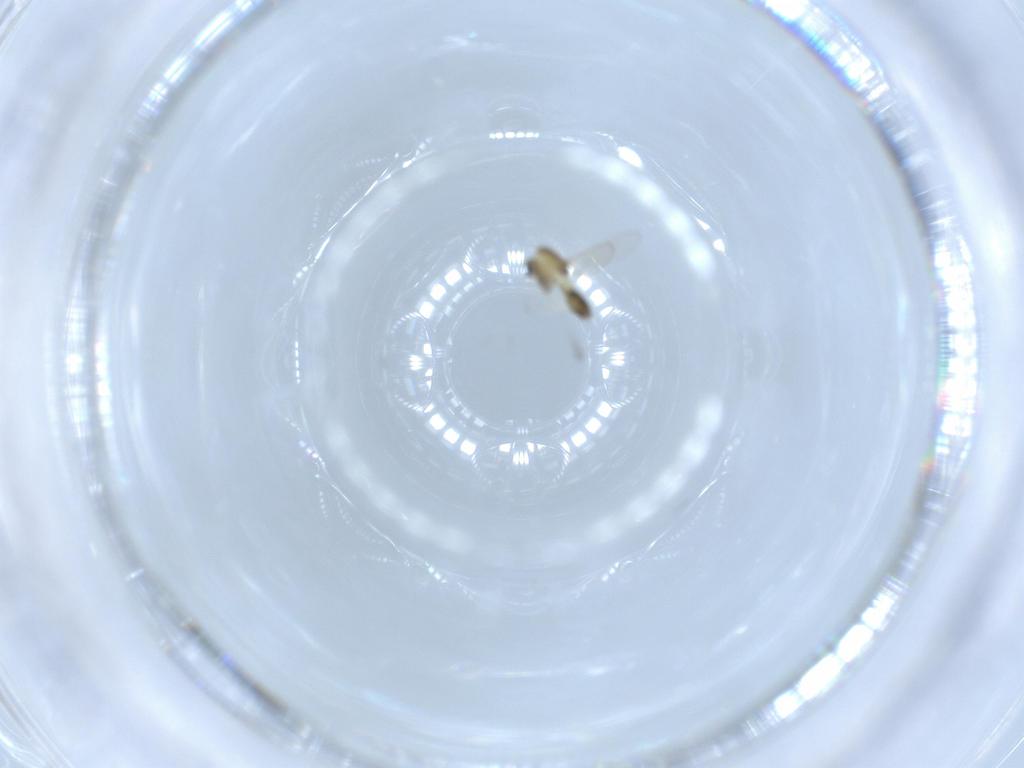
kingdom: Animalia
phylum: Arthropoda
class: Insecta
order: Diptera
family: Chironomidae
